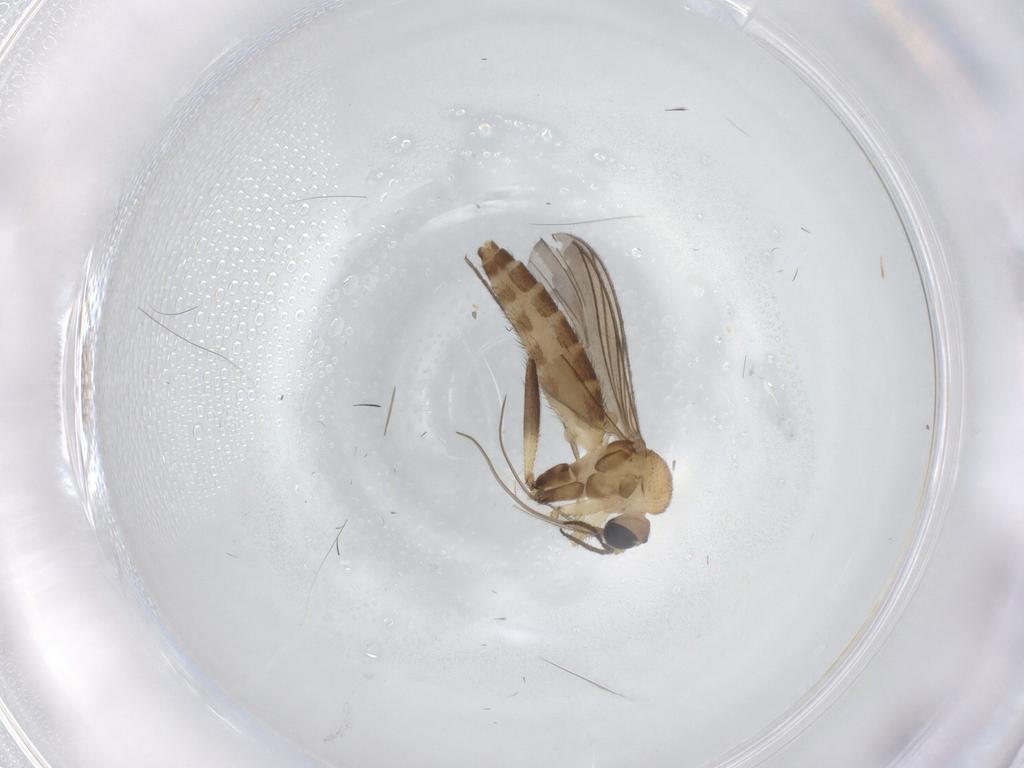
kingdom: Animalia
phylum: Arthropoda
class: Insecta
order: Diptera
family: Keroplatidae
